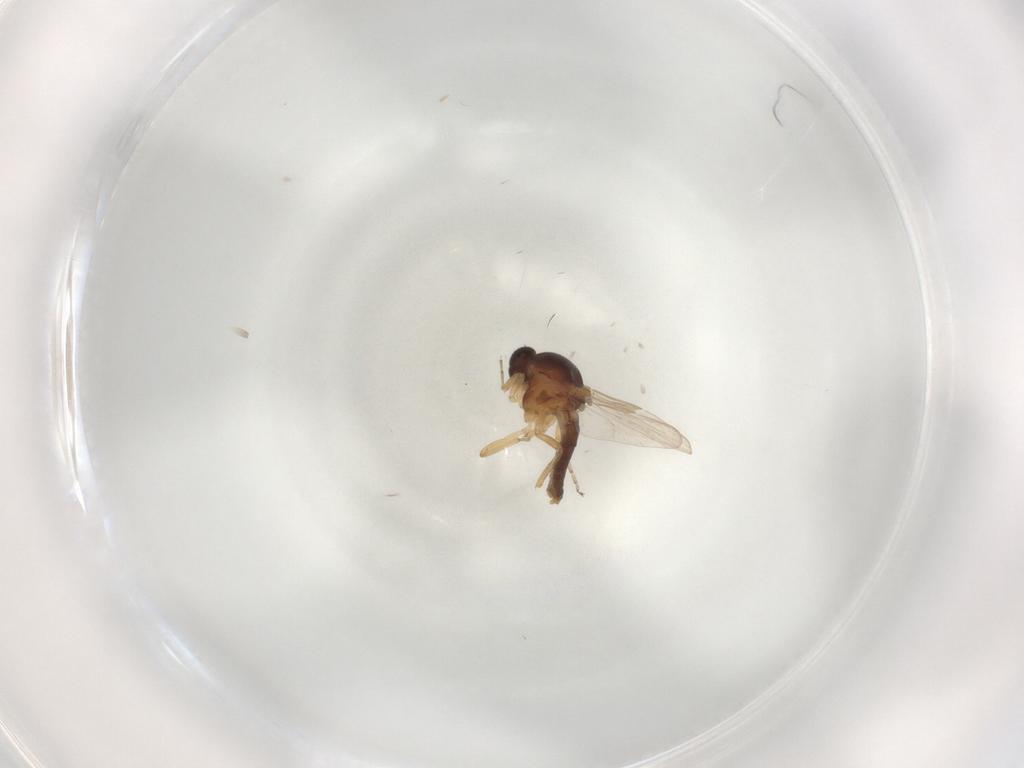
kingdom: Animalia
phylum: Arthropoda
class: Insecta
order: Diptera
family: Ceratopogonidae
